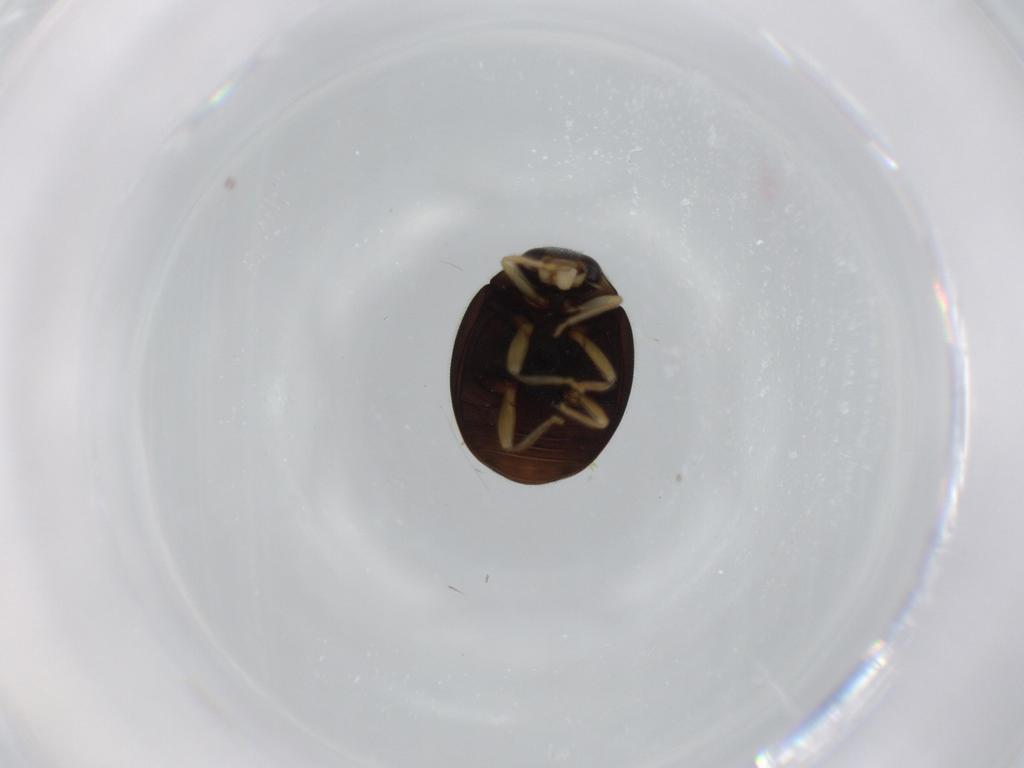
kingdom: Animalia
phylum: Arthropoda
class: Insecta
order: Coleoptera
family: Coccinellidae
